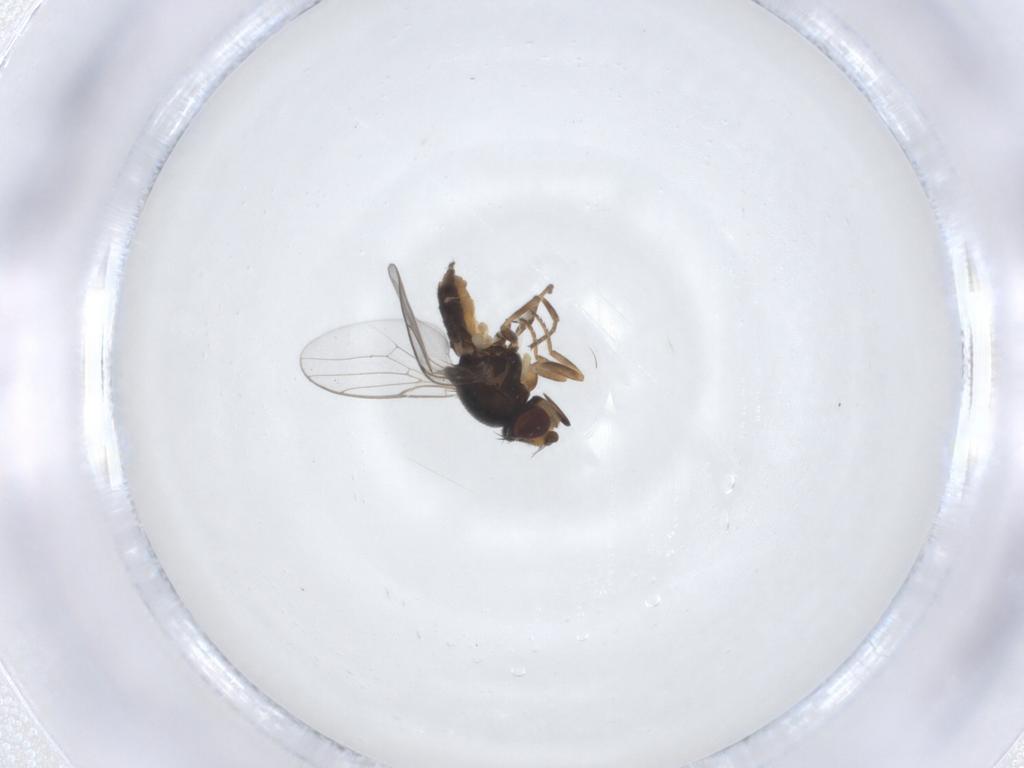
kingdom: Animalia
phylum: Arthropoda
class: Insecta
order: Diptera
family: Chloropidae
